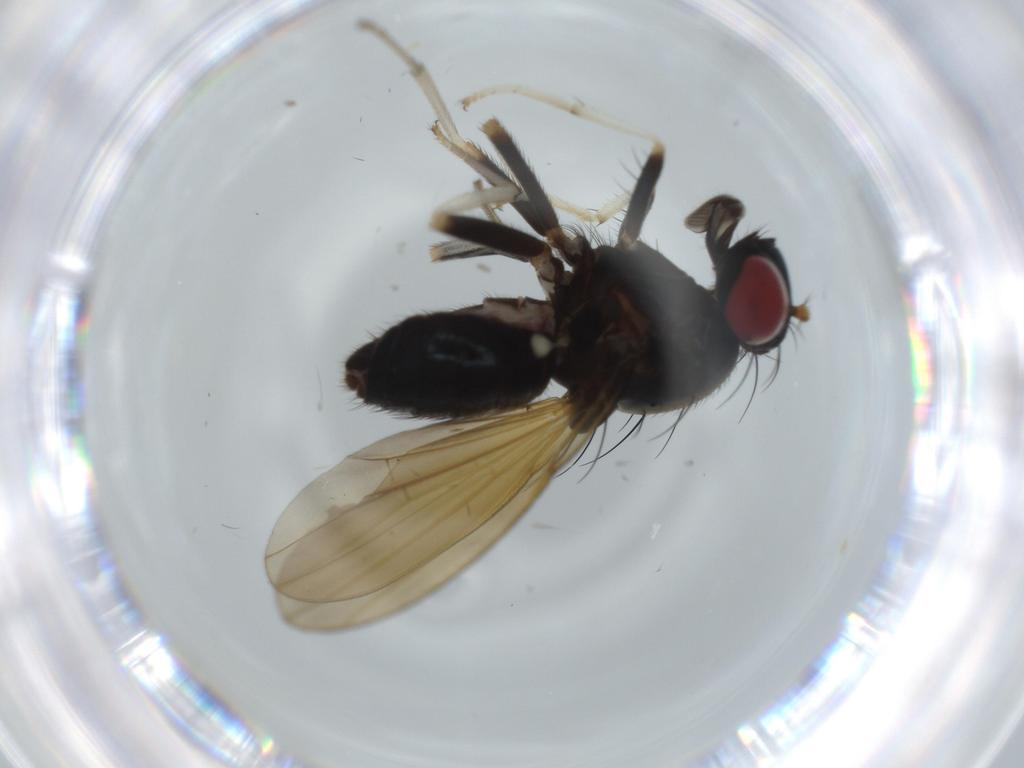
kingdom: Animalia
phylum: Arthropoda
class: Insecta
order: Diptera
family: Cecidomyiidae
